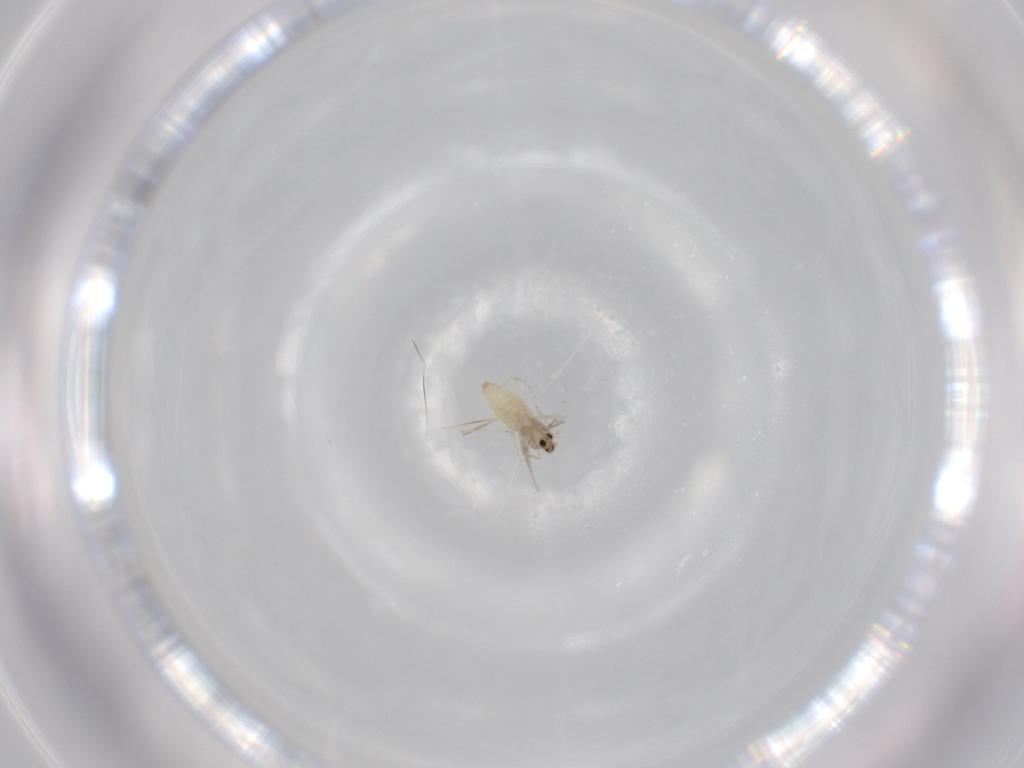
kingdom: Animalia
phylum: Arthropoda
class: Insecta
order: Diptera
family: Cecidomyiidae
